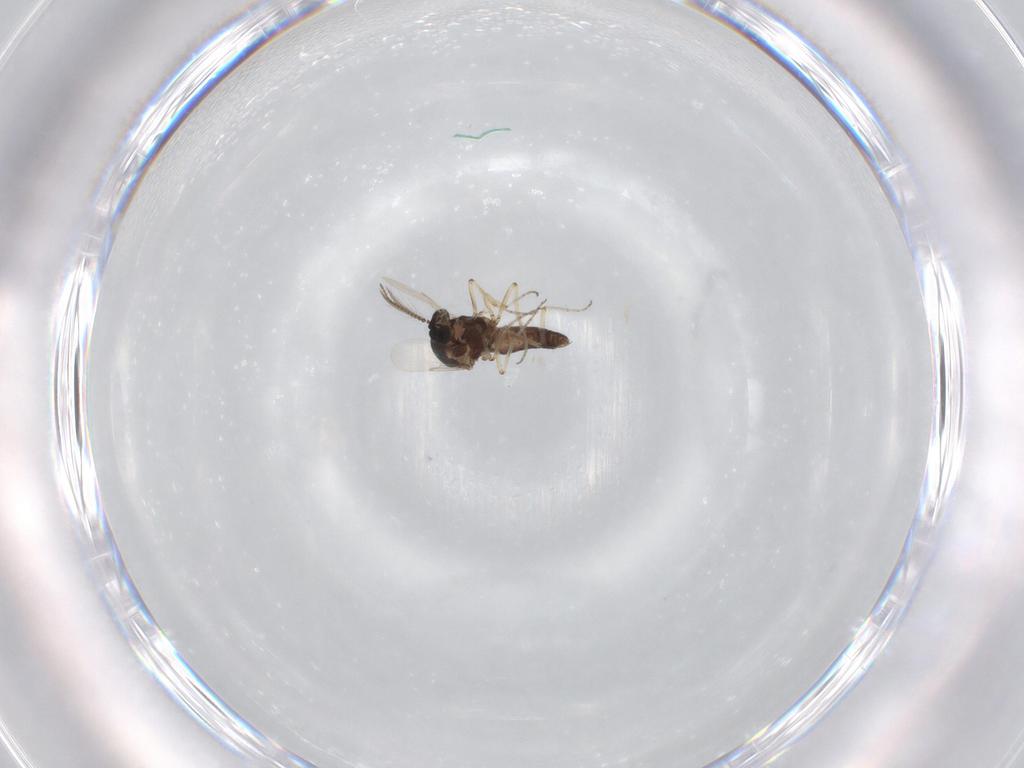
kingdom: Animalia
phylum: Arthropoda
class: Insecta
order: Diptera
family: Ceratopogonidae
